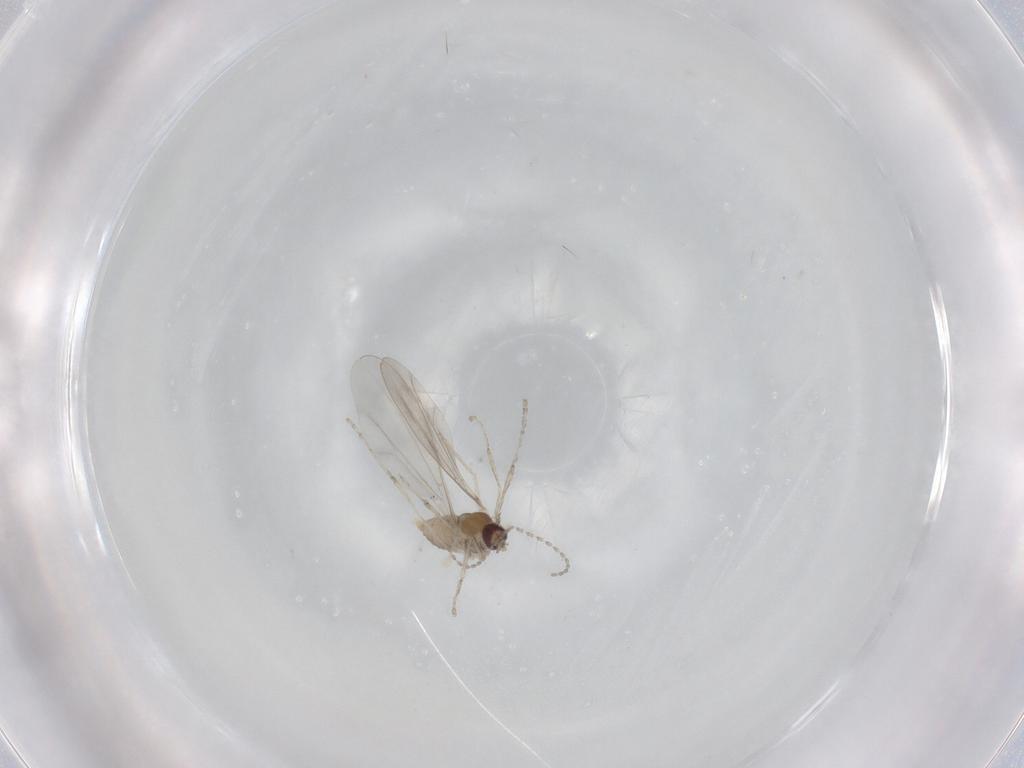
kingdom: Animalia
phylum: Arthropoda
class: Insecta
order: Diptera
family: Cecidomyiidae
